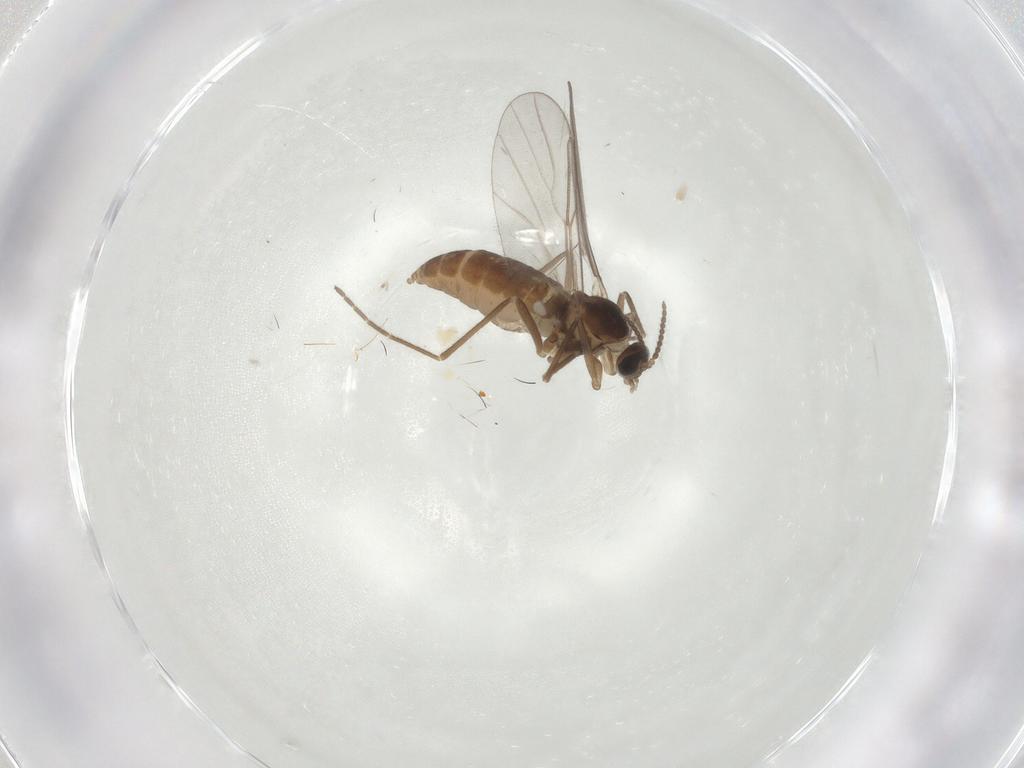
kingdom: Animalia
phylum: Arthropoda
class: Insecta
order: Diptera
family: Cecidomyiidae
